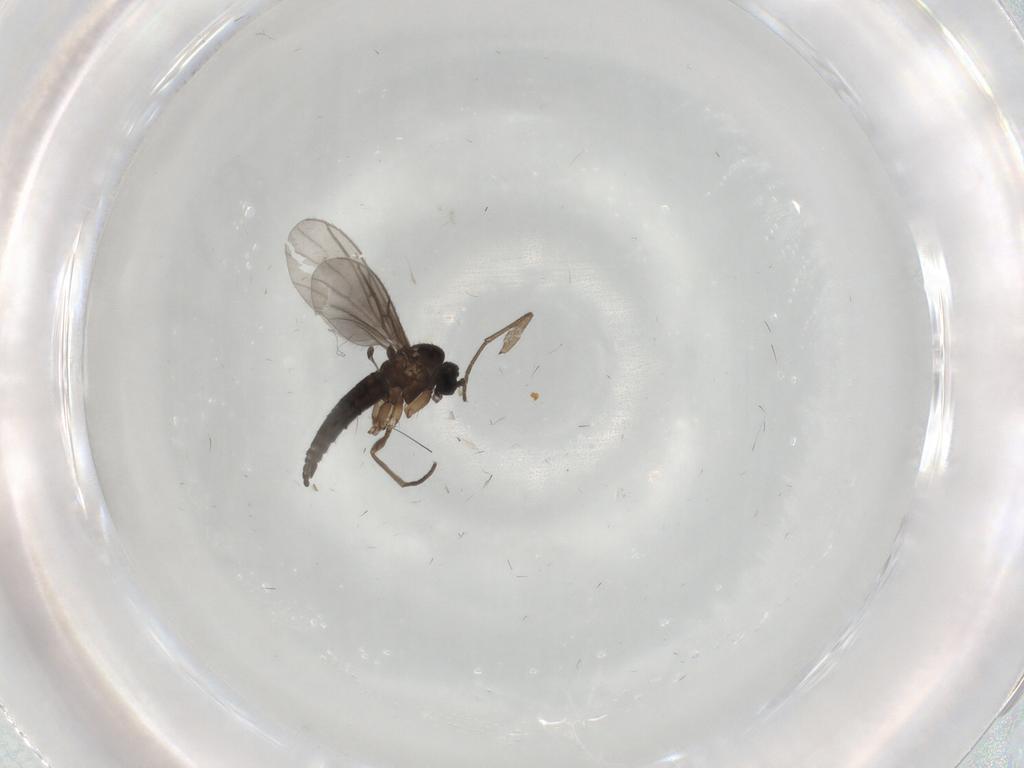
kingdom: Animalia
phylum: Arthropoda
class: Insecta
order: Diptera
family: Sciaridae
